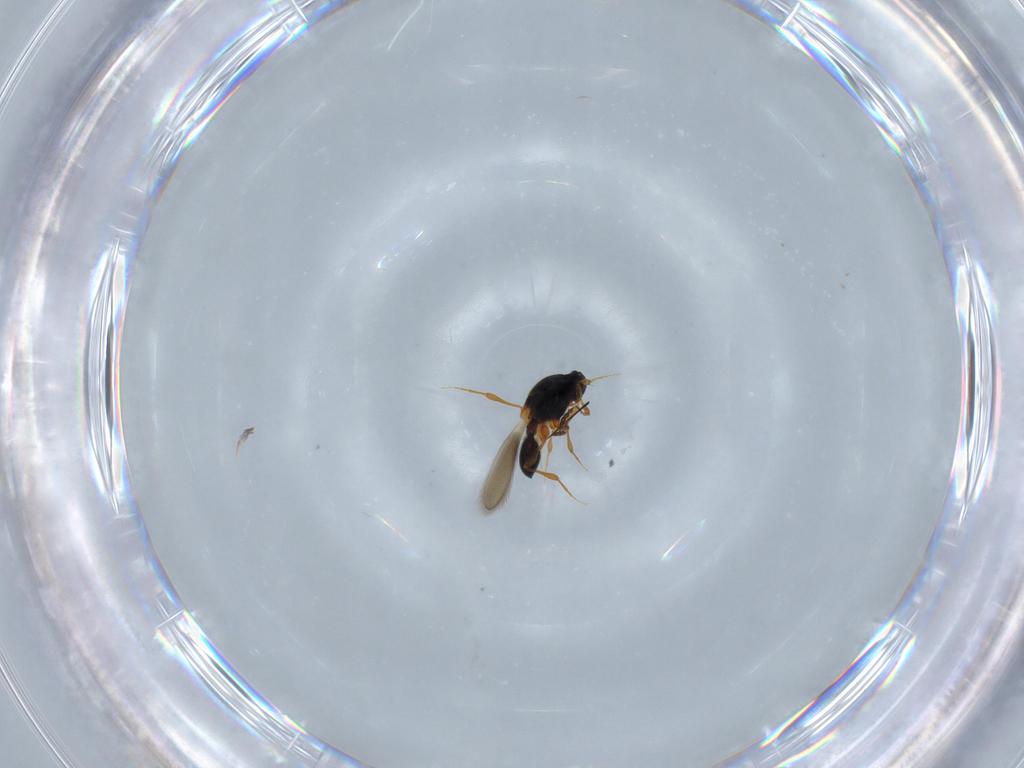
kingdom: Animalia
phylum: Arthropoda
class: Insecta
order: Hymenoptera
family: Platygastridae
